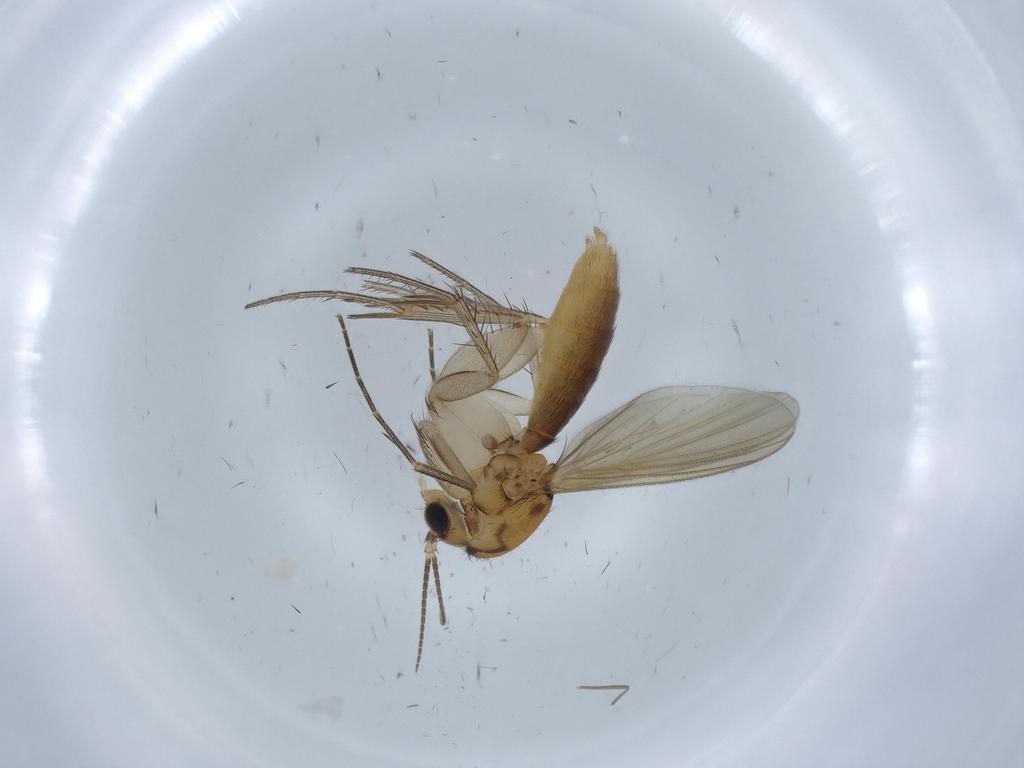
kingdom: Animalia
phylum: Arthropoda
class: Insecta
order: Diptera
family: Mycetophilidae
